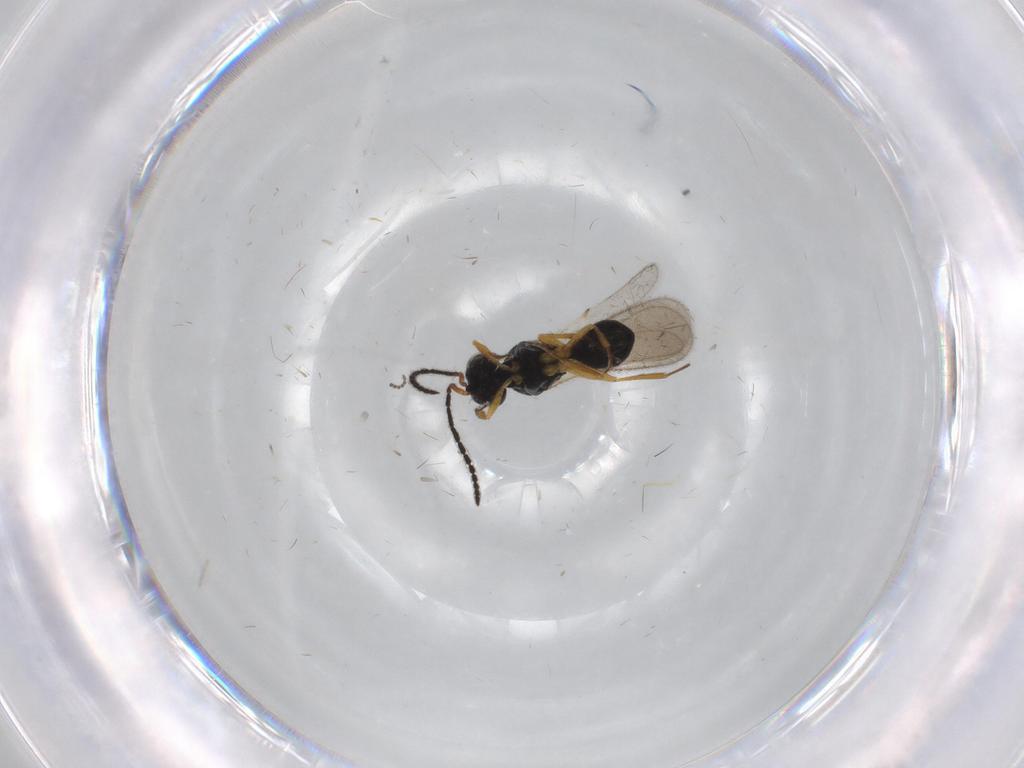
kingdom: Animalia
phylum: Arthropoda
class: Insecta
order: Hymenoptera
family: Scelionidae
